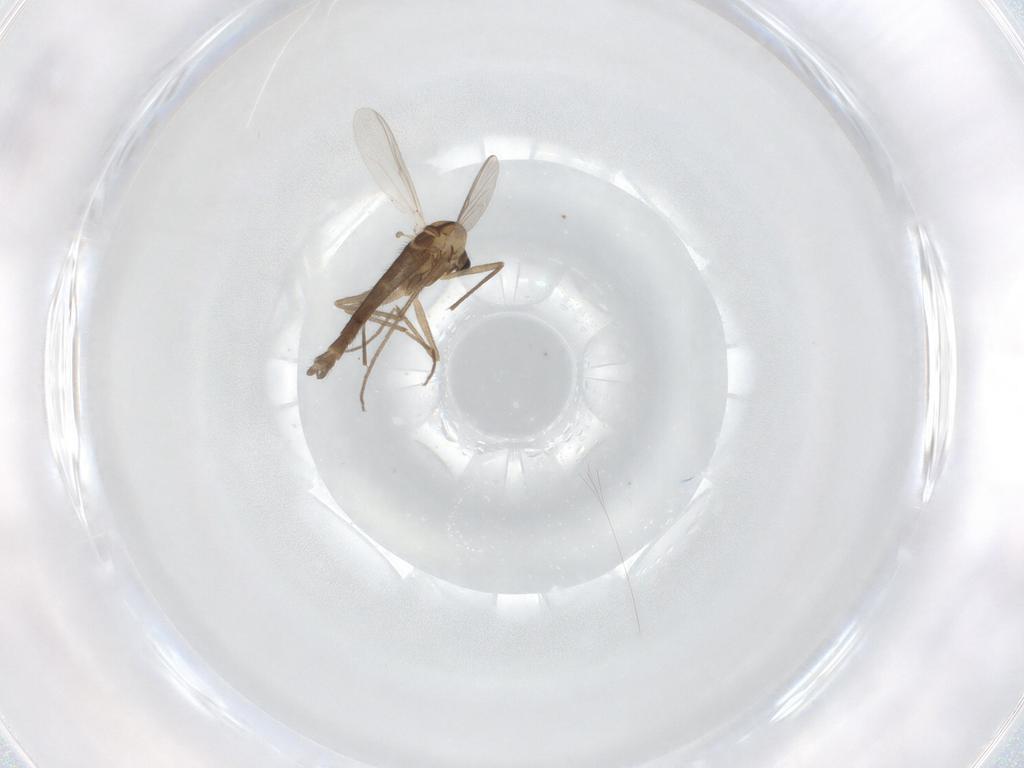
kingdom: Animalia
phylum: Arthropoda
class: Insecta
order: Diptera
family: Chironomidae
